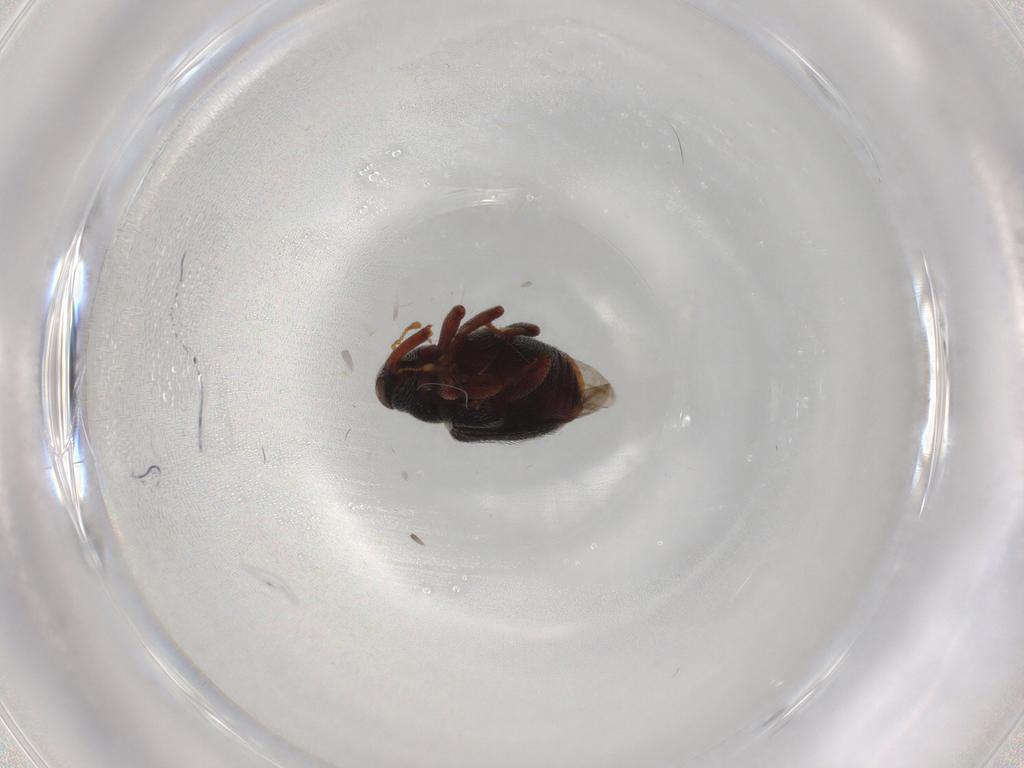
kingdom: Animalia
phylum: Arthropoda
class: Insecta
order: Coleoptera
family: Curculionidae
